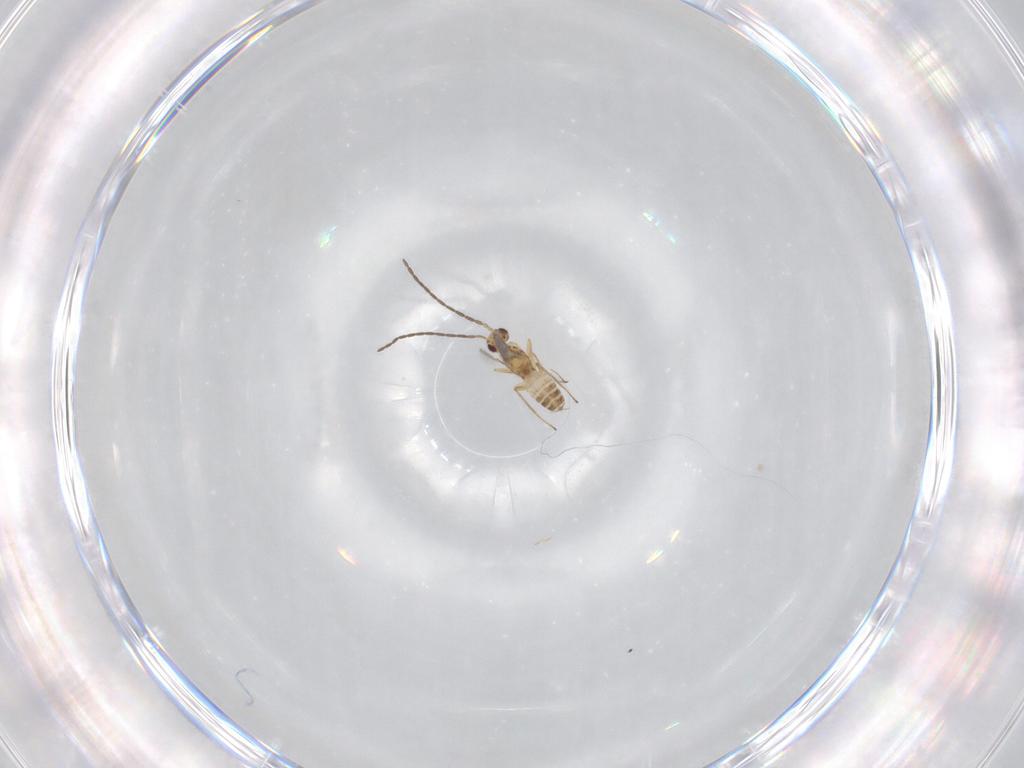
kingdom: Animalia
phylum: Arthropoda
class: Insecta
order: Hymenoptera
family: Mymaridae
